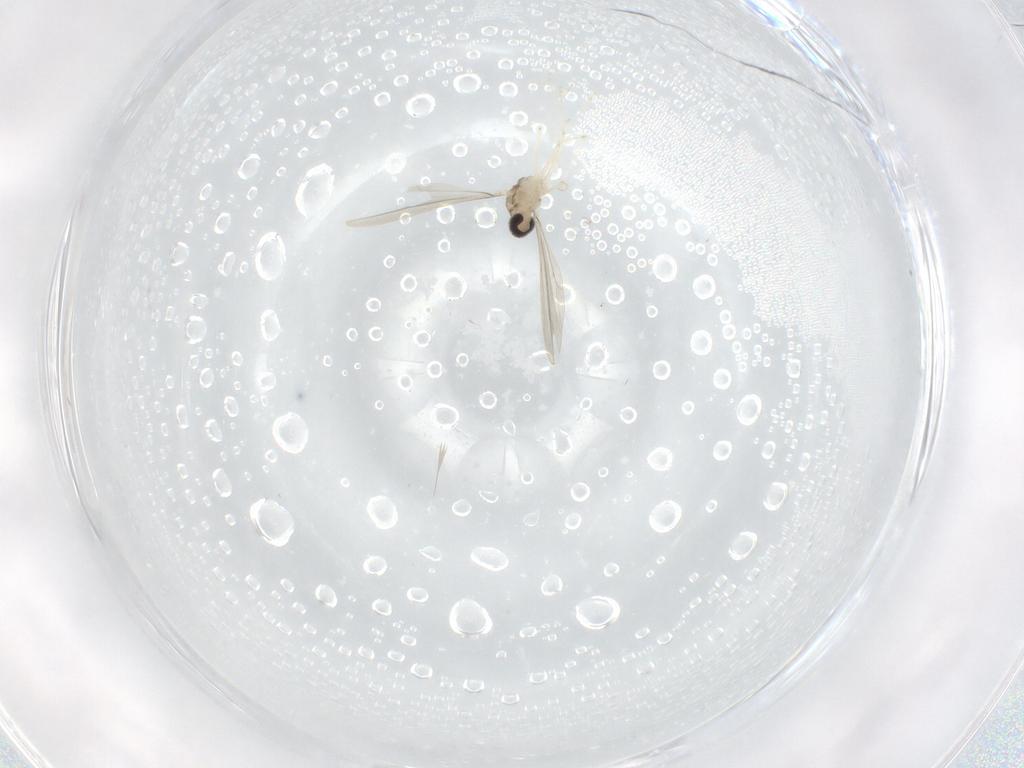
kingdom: Animalia
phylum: Arthropoda
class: Insecta
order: Diptera
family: Cecidomyiidae
